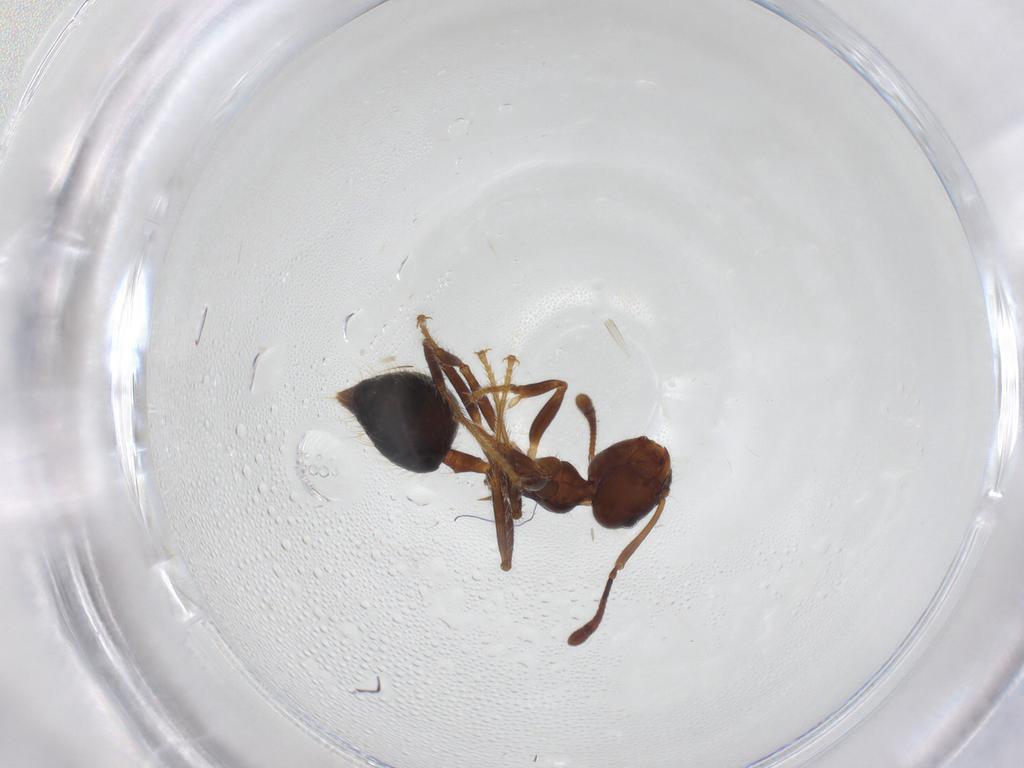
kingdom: Animalia
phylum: Arthropoda
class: Insecta
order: Hymenoptera
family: Formicidae
